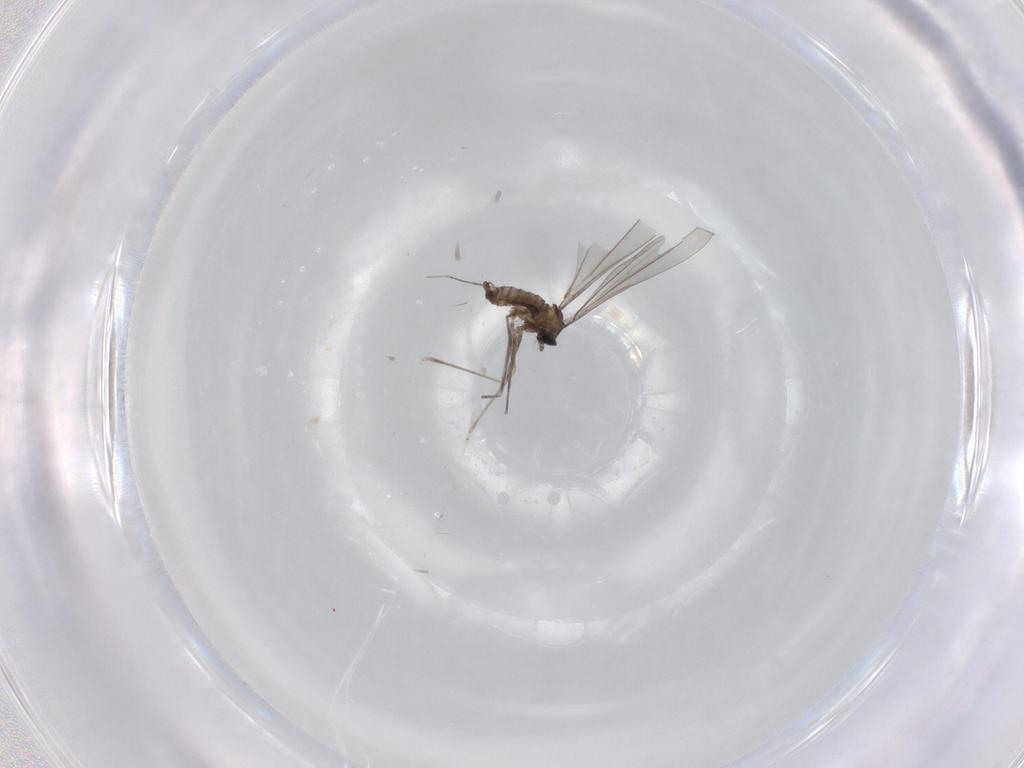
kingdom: Animalia
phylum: Arthropoda
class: Insecta
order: Diptera
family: Cecidomyiidae
